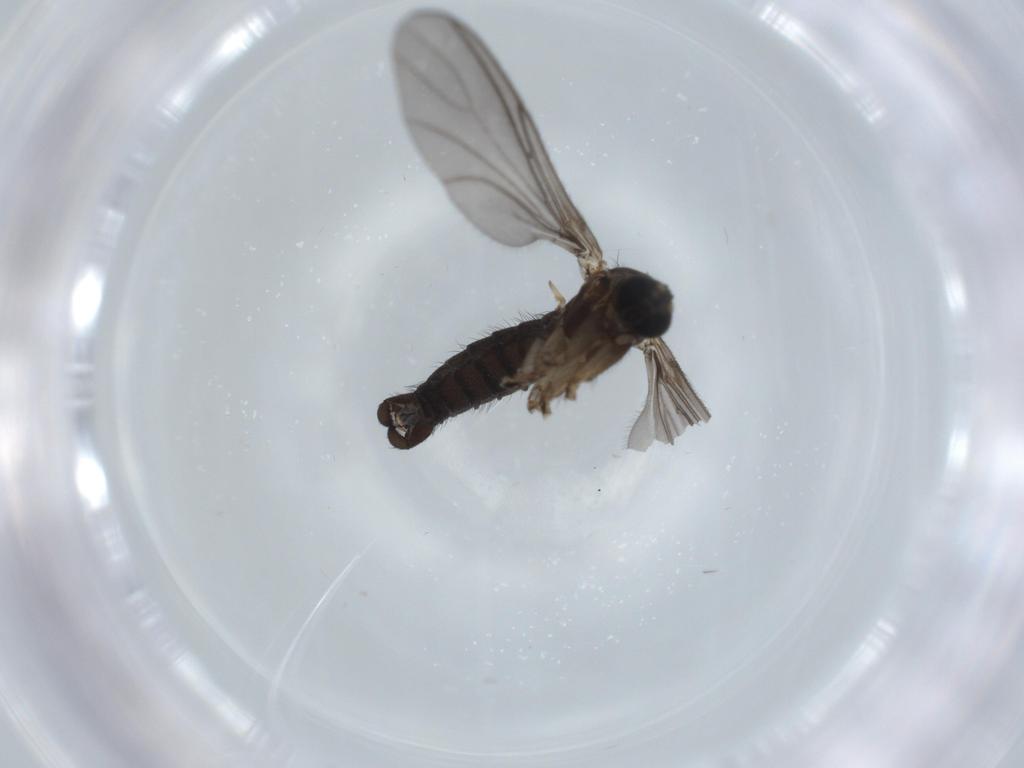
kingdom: Animalia
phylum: Arthropoda
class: Insecta
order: Diptera
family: Sciaridae
